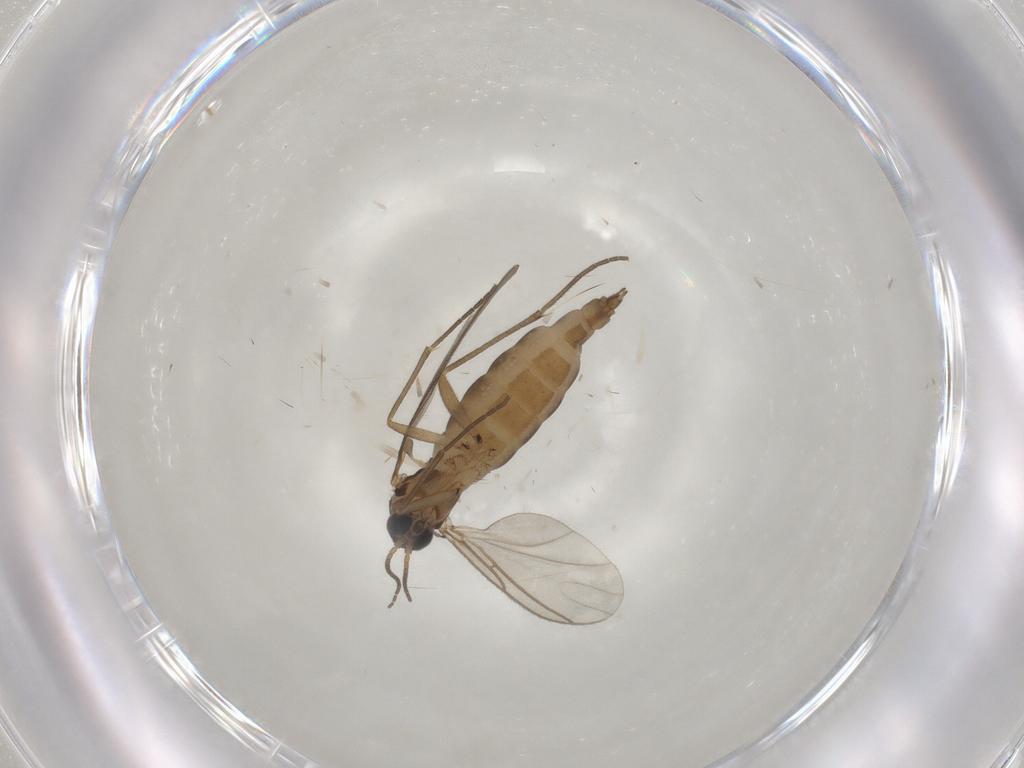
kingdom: Animalia
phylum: Arthropoda
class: Insecta
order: Diptera
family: Sciaridae
